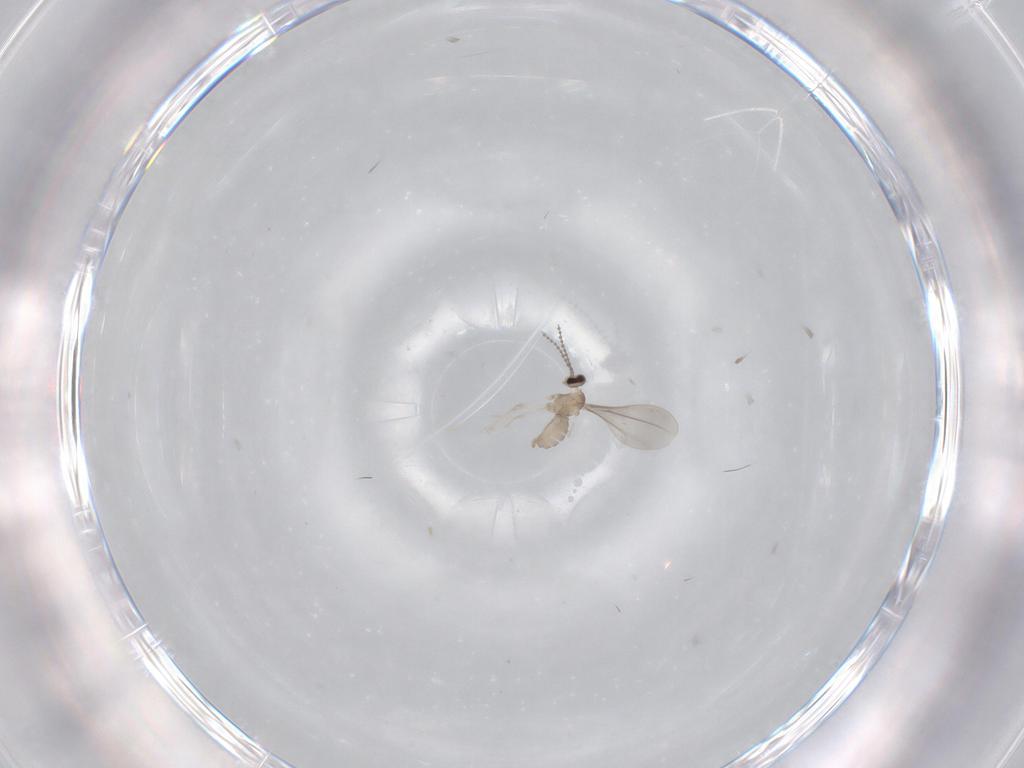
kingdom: Animalia
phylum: Arthropoda
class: Insecta
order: Diptera
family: Cecidomyiidae
